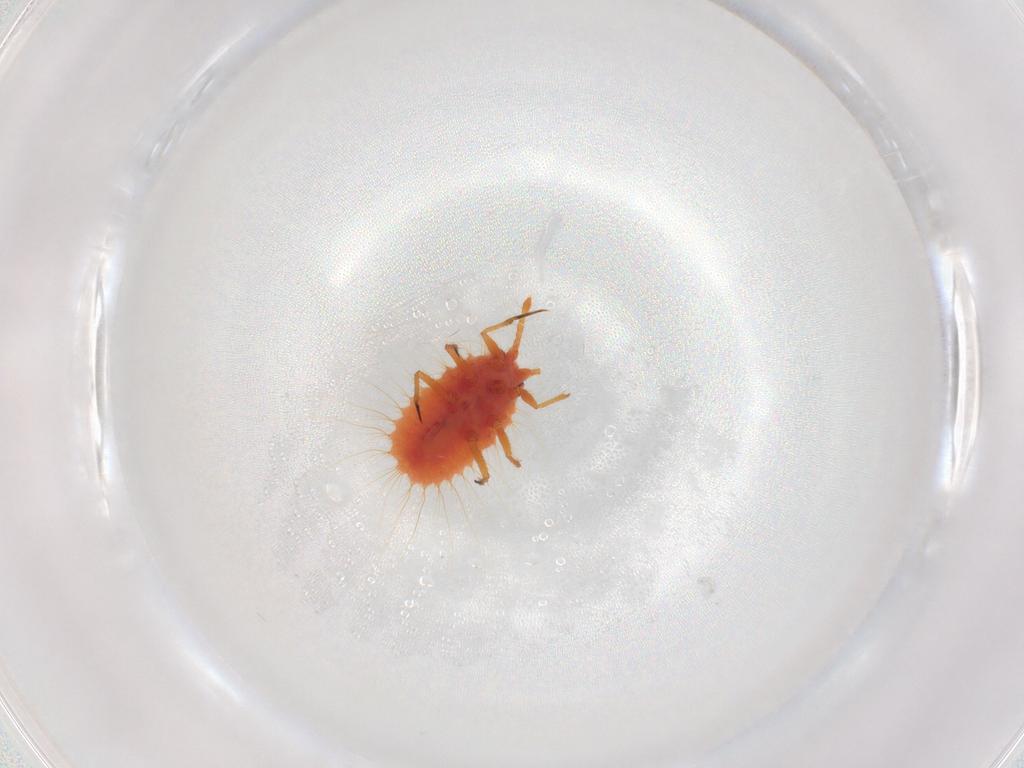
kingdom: Animalia
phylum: Arthropoda
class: Insecta
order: Hemiptera
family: Coccoidea_incertae_sedis
